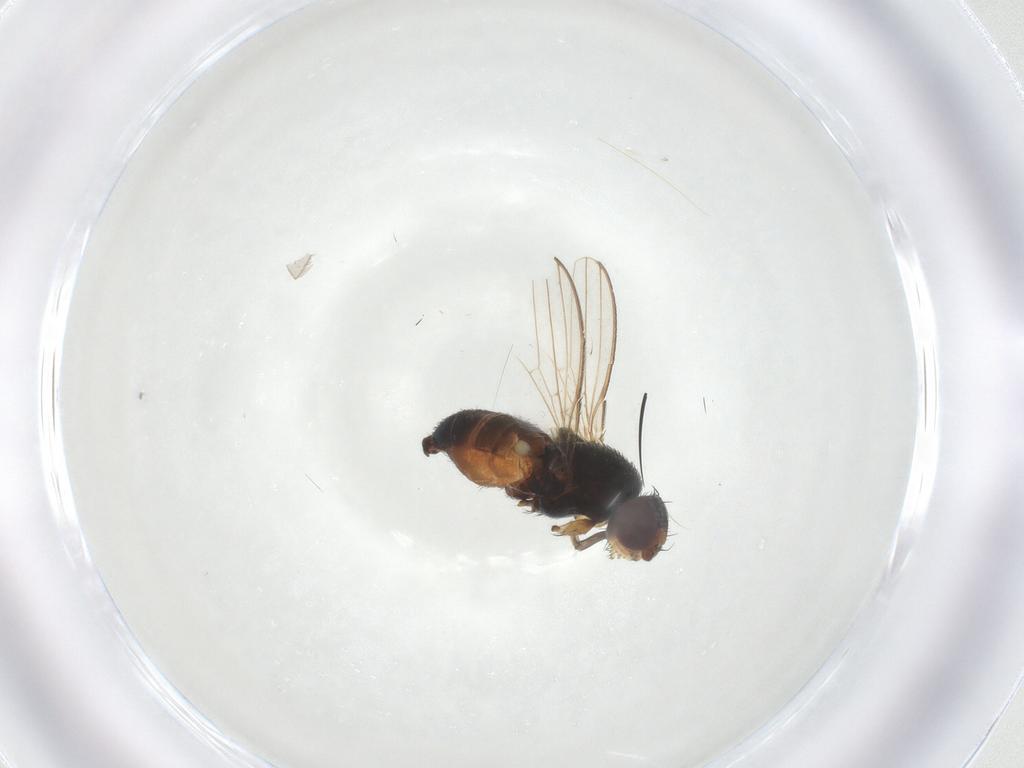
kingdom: Animalia
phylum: Arthropoda
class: Insecta
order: Diptera
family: Milichiidae
